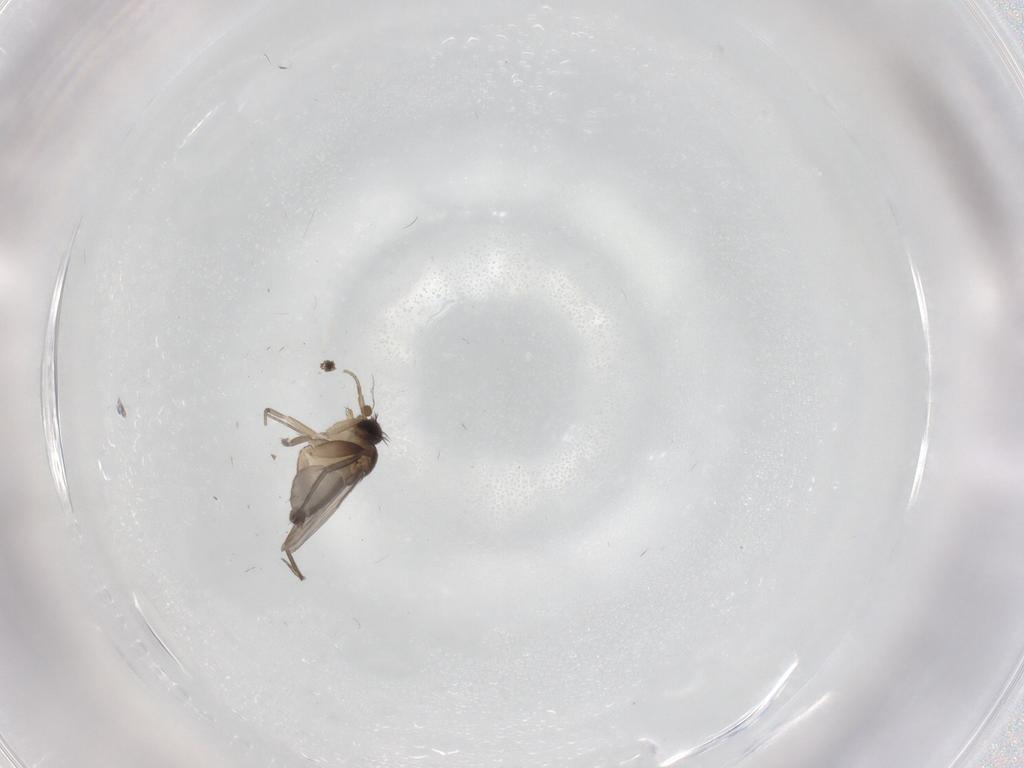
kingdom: Animalia
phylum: Arthropoda
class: Insecta
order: Diptera
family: Phoridae
